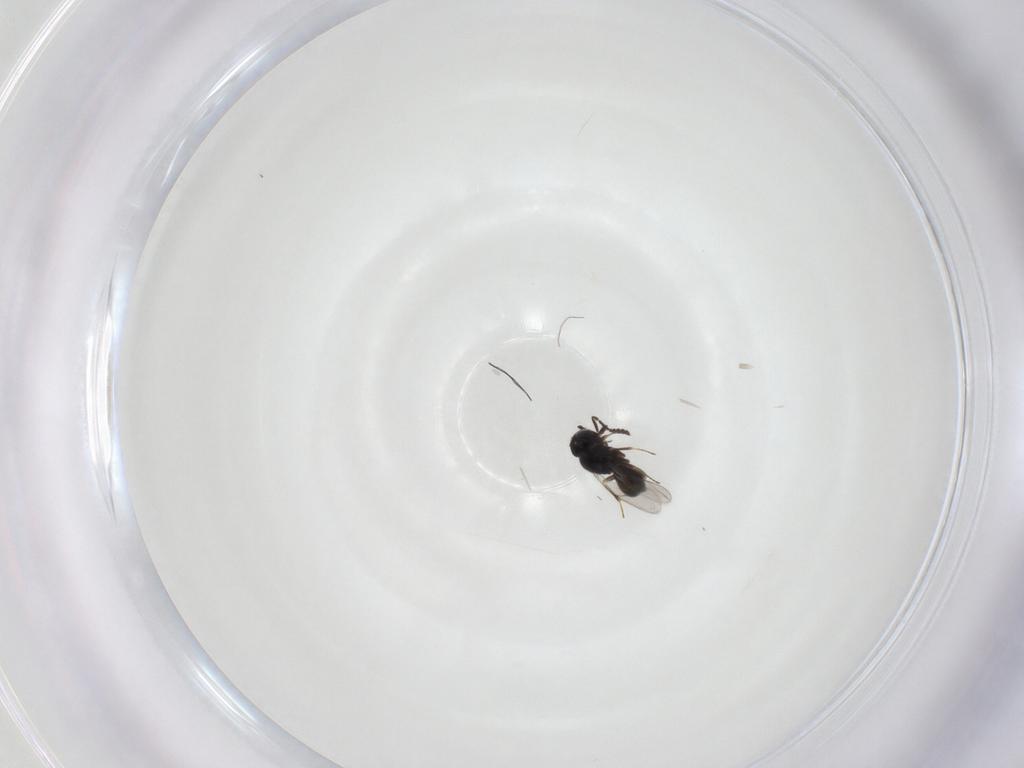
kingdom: Animalia
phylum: Arthropoda
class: Insecta
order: Hymenoptera
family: Scelionidae
